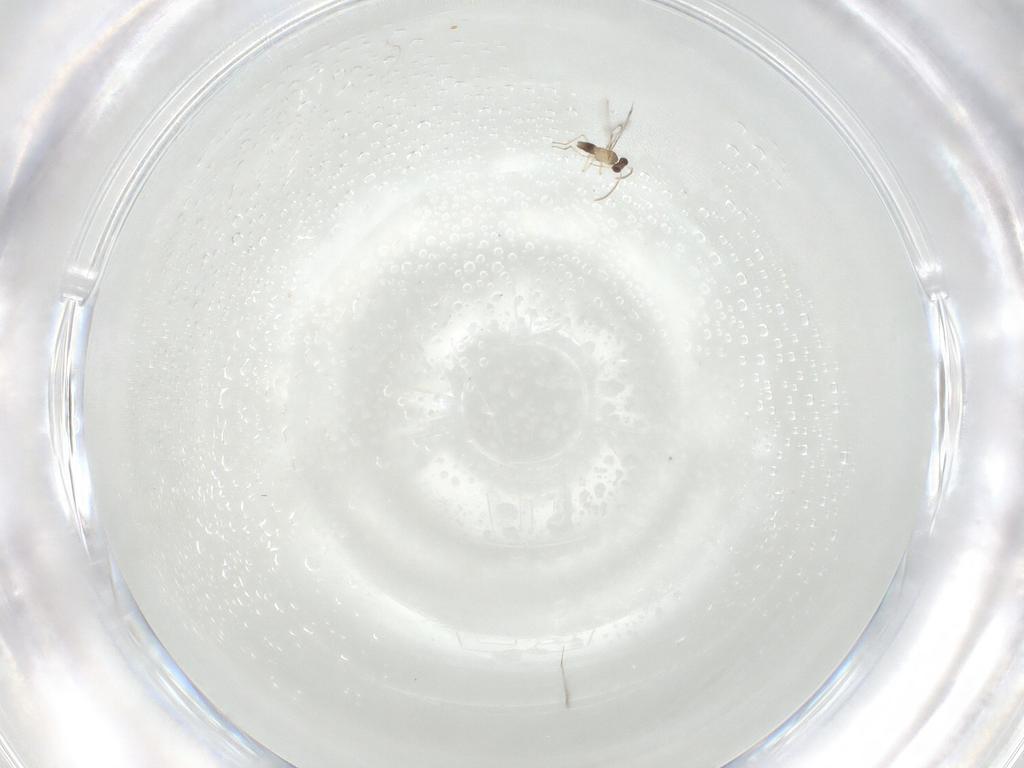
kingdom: Animalia
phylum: Arthropoda
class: Insecta
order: Hymenoptera
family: Mymaridae
